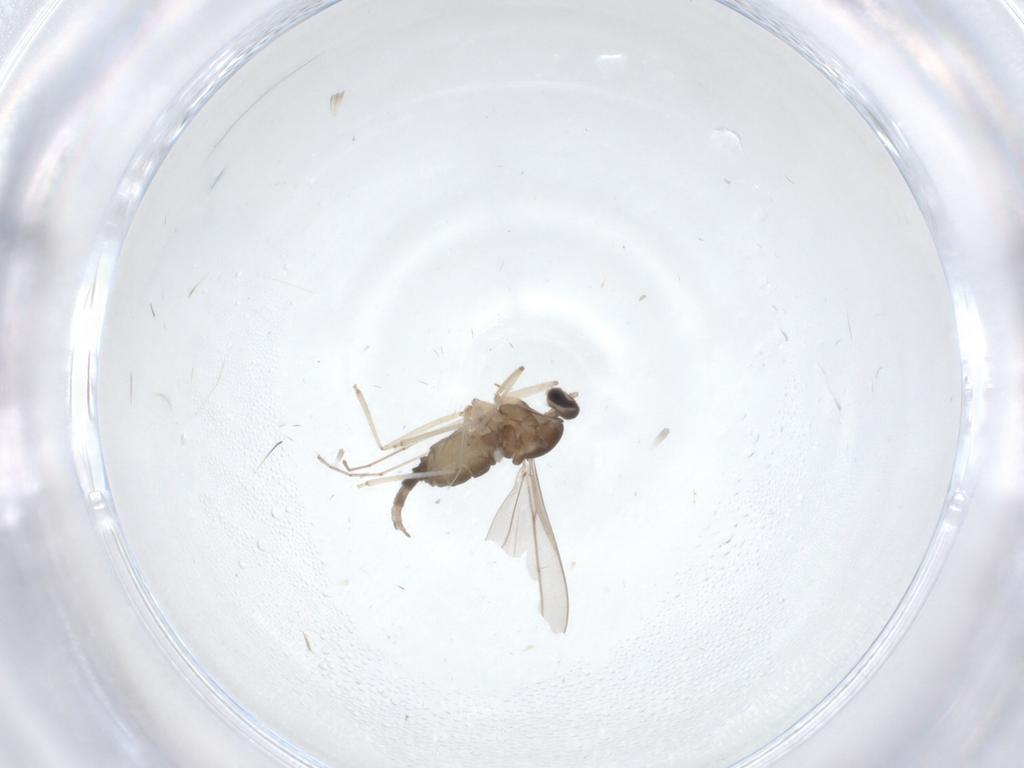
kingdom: Animalia
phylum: Arthropoda
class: Insecta
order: Diptera
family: Cecidomyiidae
